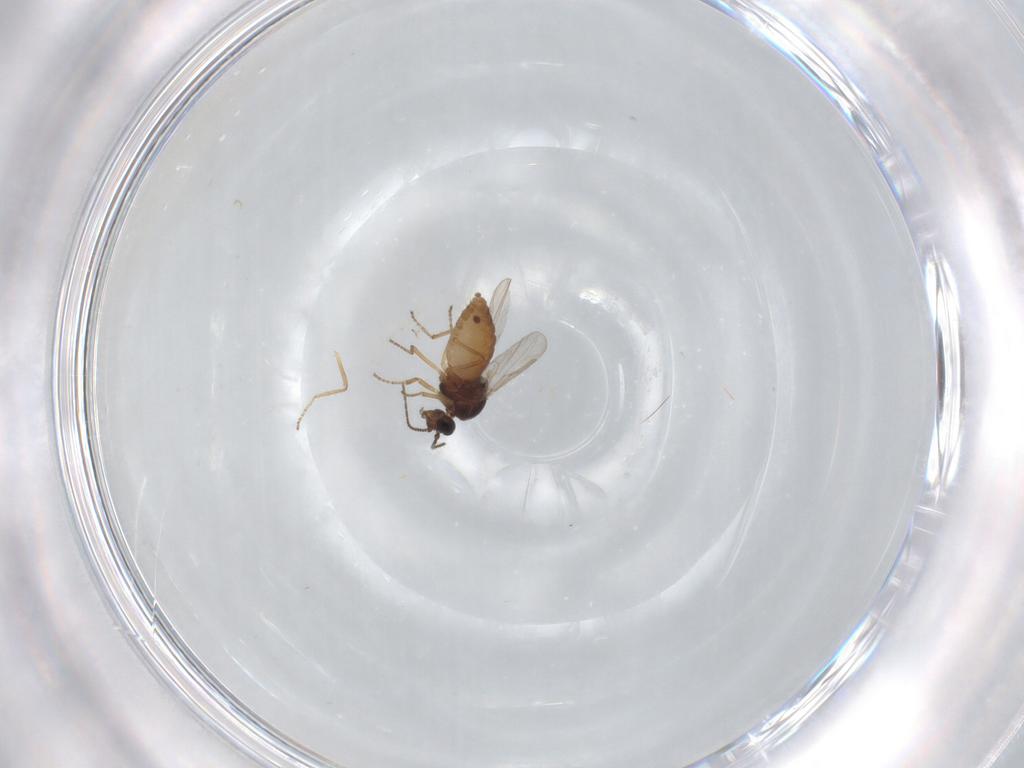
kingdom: Animalia
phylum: Arthropoda
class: Insecta
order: Diptera
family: Ceratopogonidae
